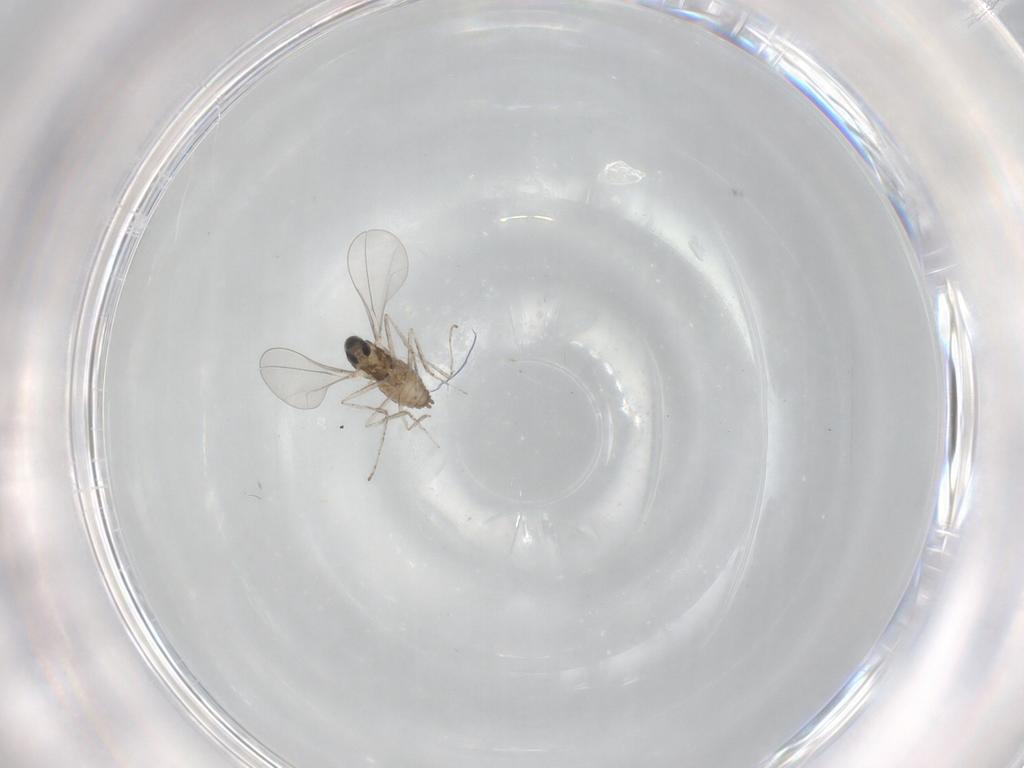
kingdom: Animalia
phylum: Arthropoda
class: Insecta
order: Diptera
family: Cecidomyiidae
